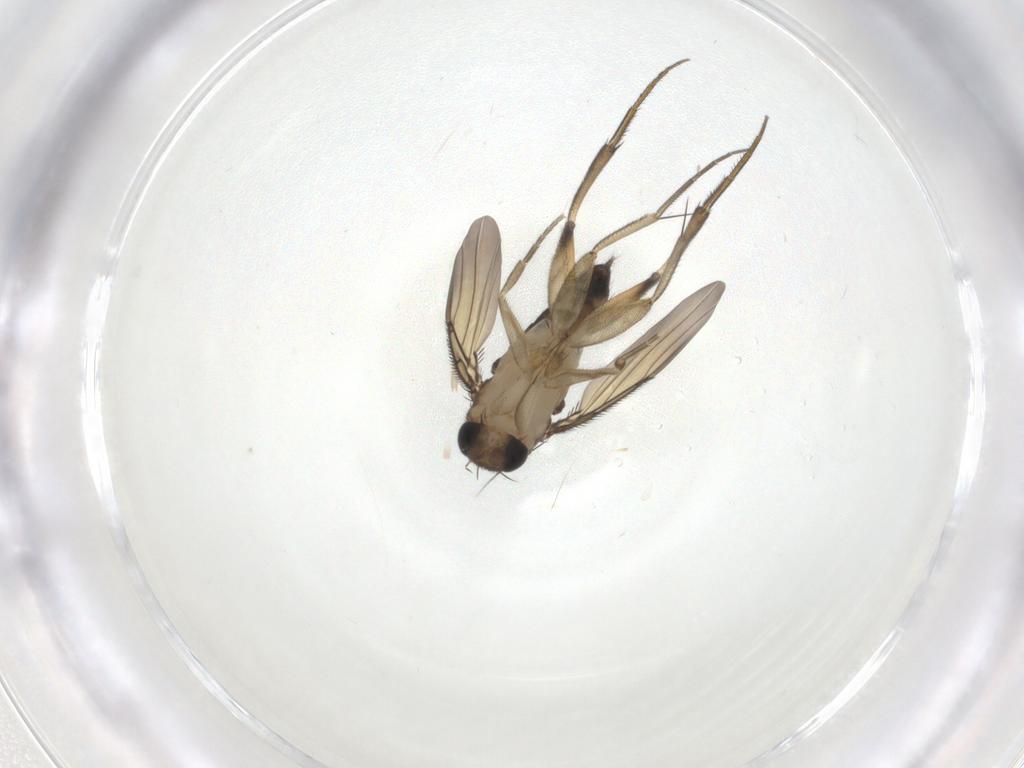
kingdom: Animalia
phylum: Arthropoda
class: Insecta
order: Diptera
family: Phoridae
